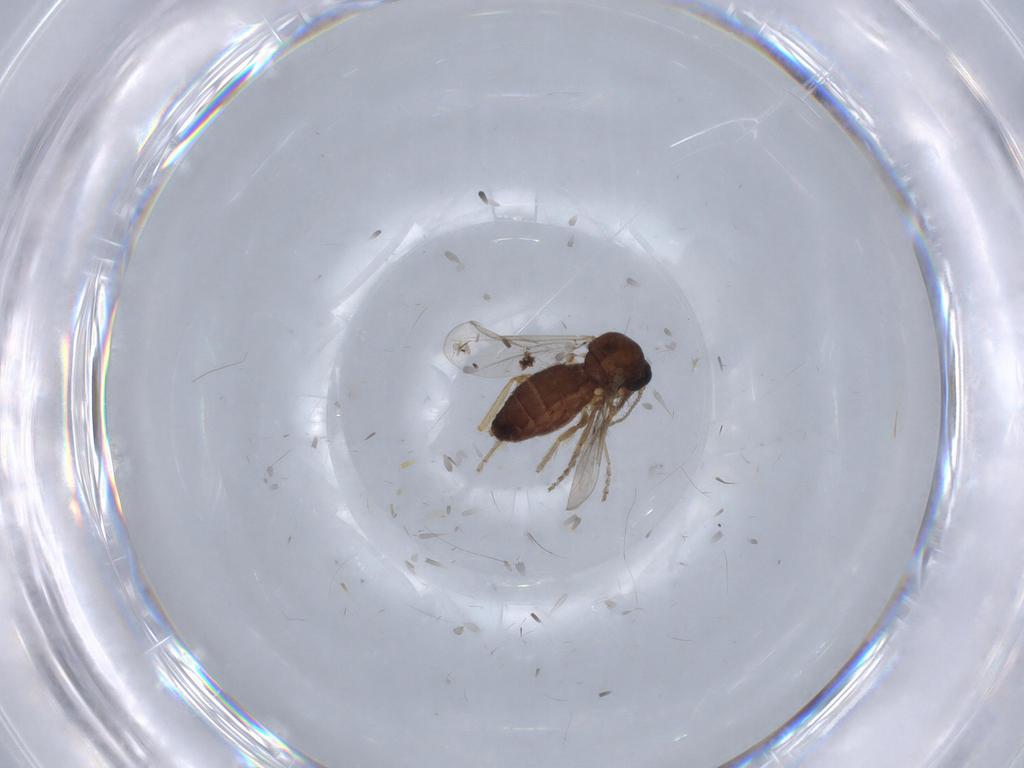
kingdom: Animalia
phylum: Arthropoda
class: Insecta
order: Diptera
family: Ceratopogonidae
